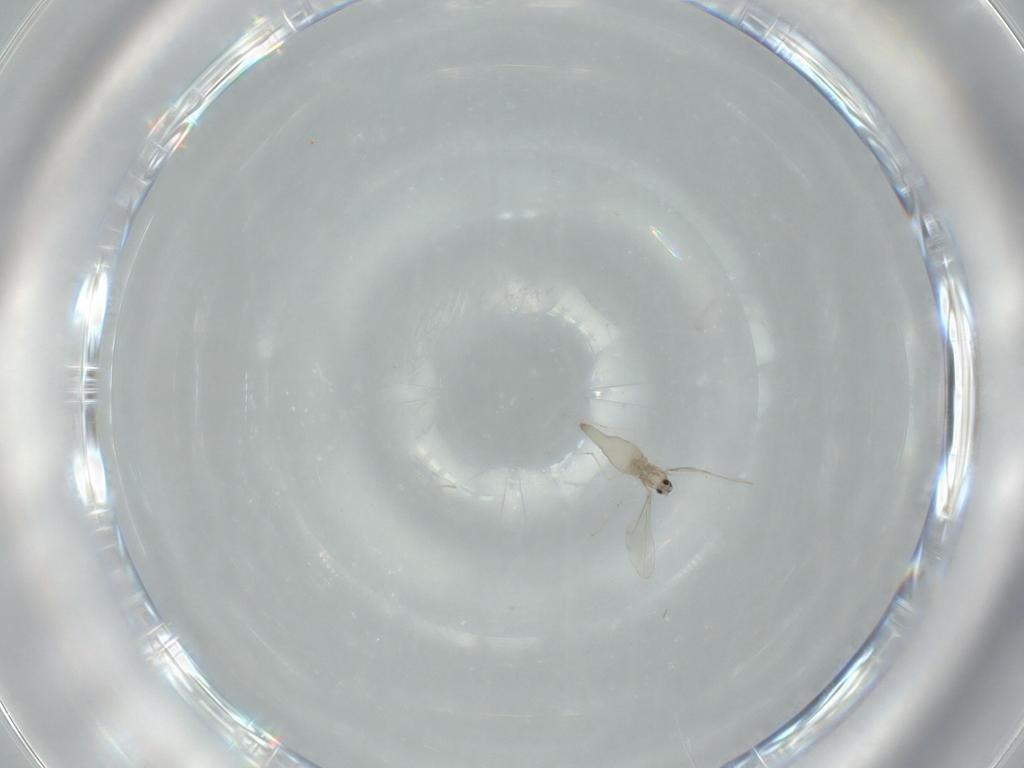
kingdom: Animalia
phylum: Arthropoda
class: Insecta
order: Diptera
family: Cecidomyiidae
